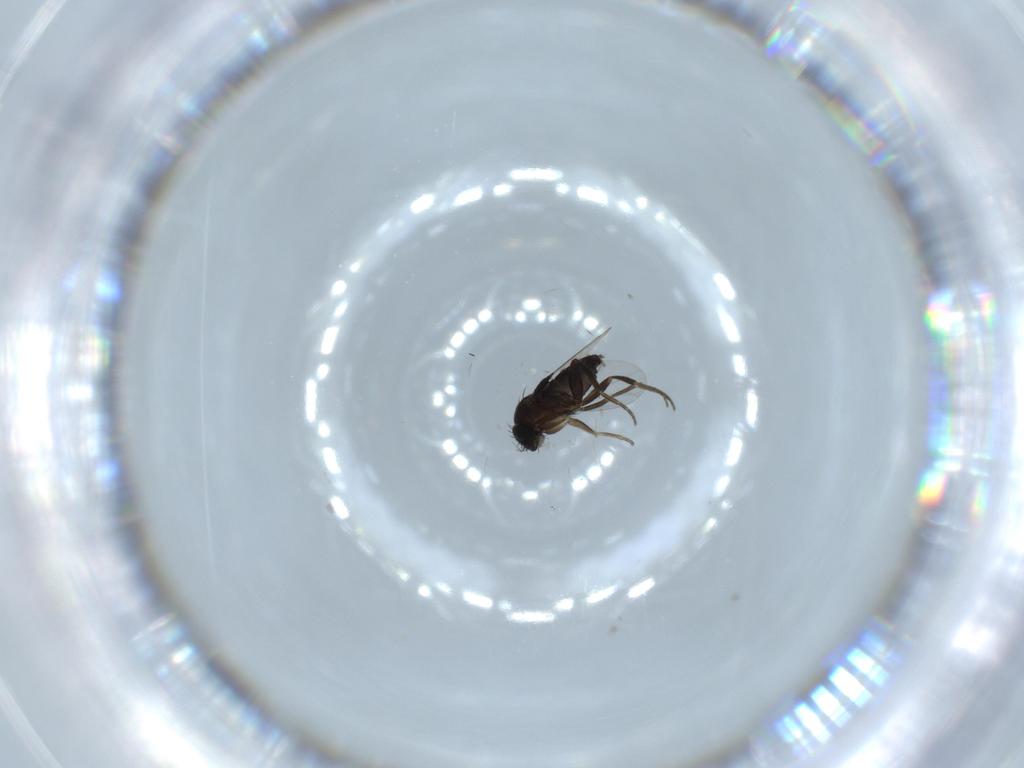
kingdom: Animalia
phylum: Arthropoda
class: Insecta
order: Diptera
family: Phoridae
